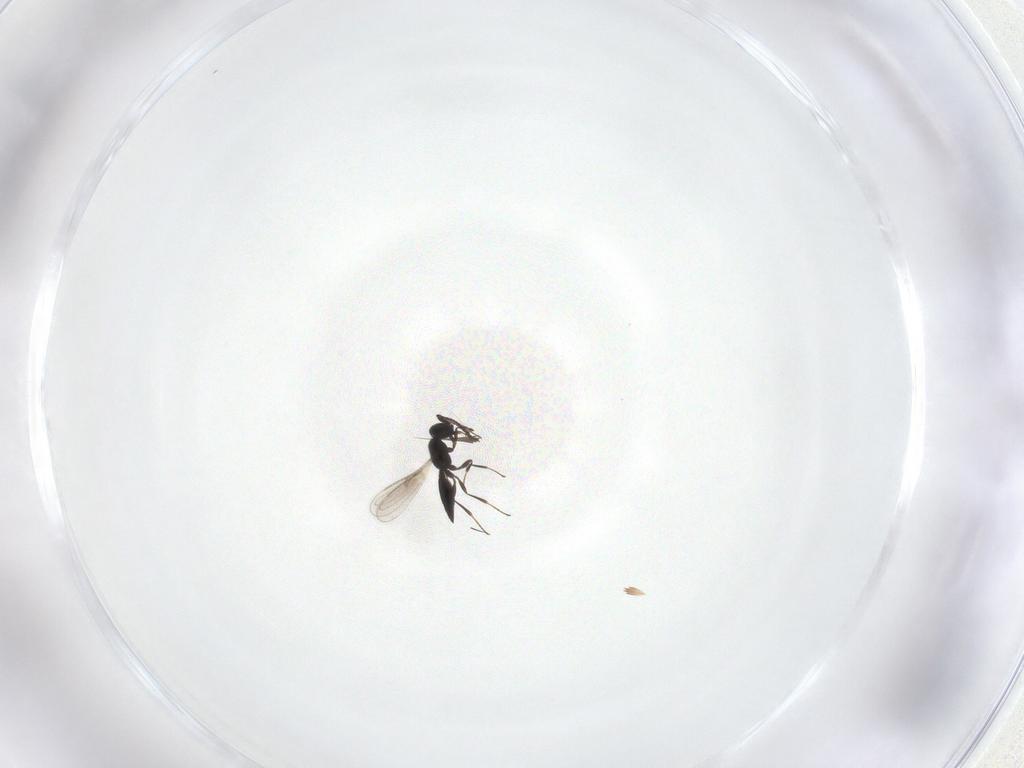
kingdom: Animalia
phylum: Arthropoda
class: Insecta
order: Hymenoptera
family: Scelionidae
